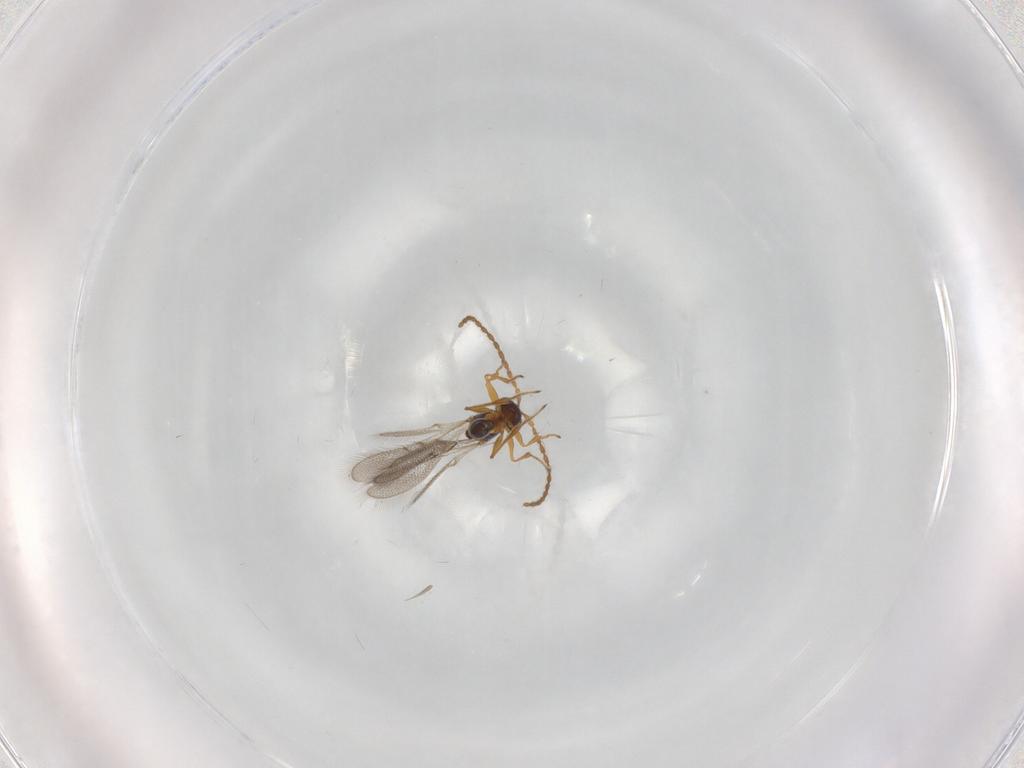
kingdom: Animalia
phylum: Arthropoda
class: Insecta
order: Hymenoptera
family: Figitidae
